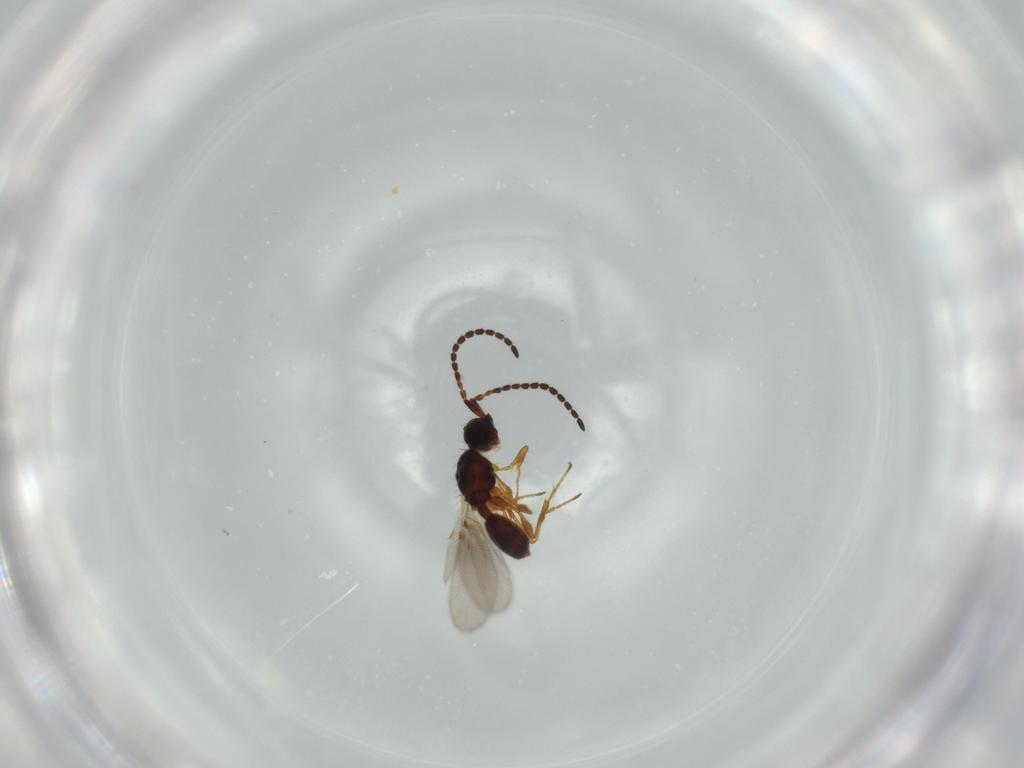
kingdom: Animalia
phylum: Arthropoda
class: Insecta
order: Hymenoptera
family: Diapriidae
